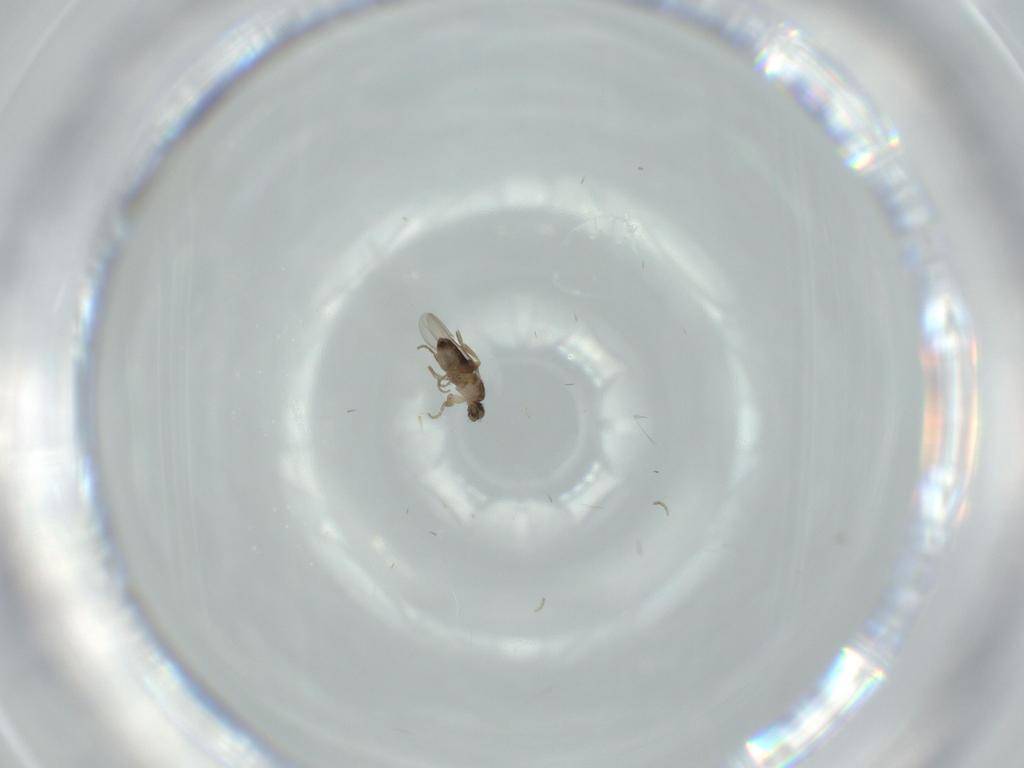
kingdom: Animalia
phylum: Arthropoda
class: Insecta
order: Diptera
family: Phoridae
